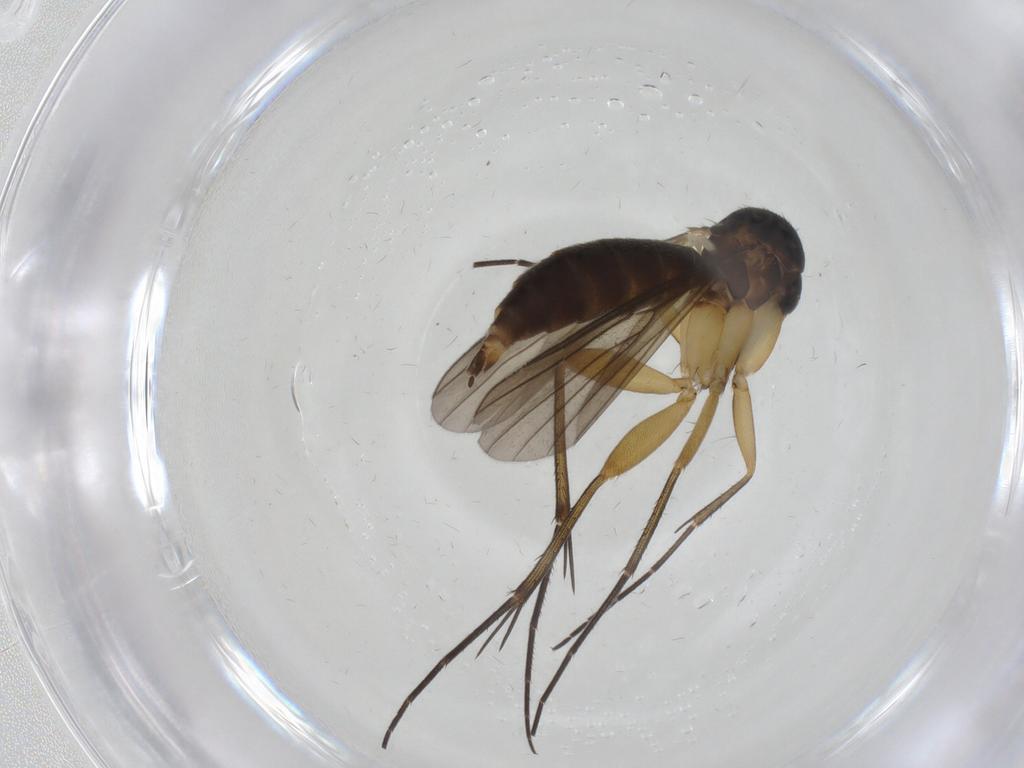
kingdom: Animalia
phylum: Arthropoda
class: Insecta
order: Diptera
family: Mycetophilidae
